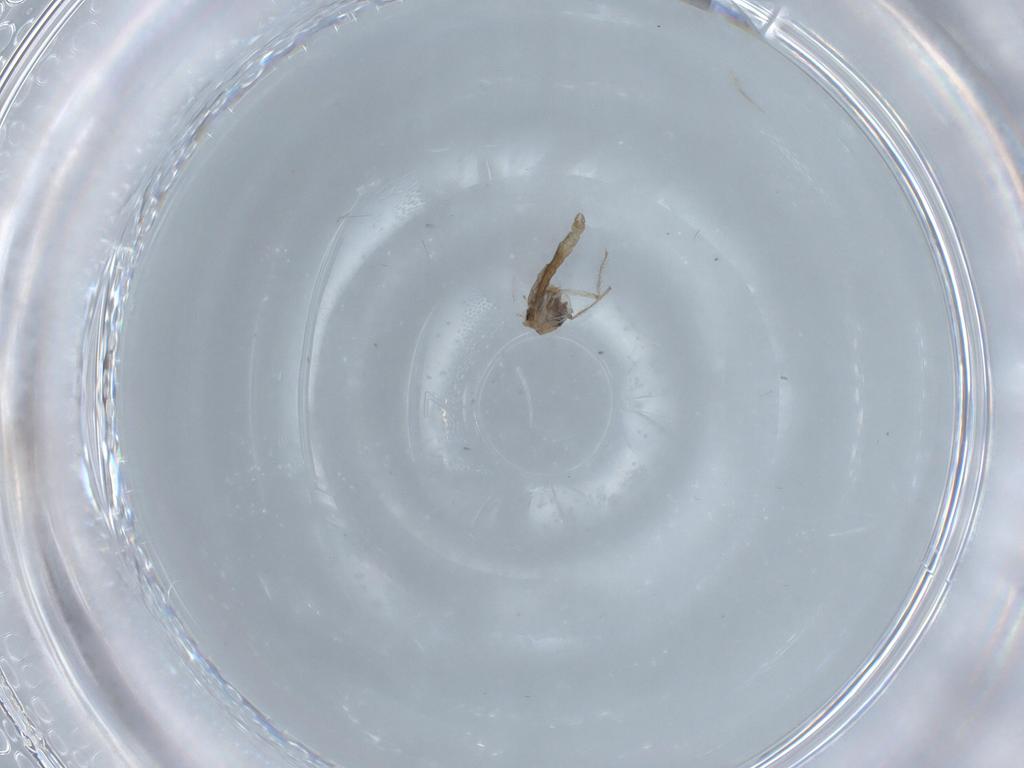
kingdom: Animalia
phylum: Arthropoda
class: Insecta
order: Diptera
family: Chironomidae
